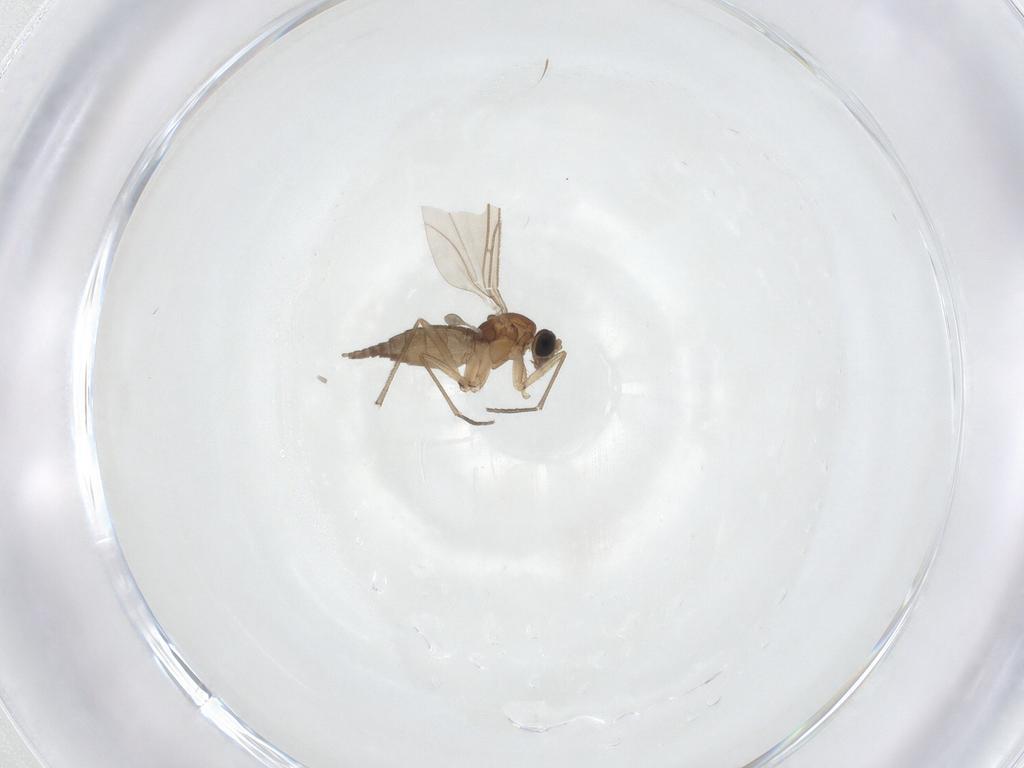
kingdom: Animalia
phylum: Arthropoda
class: Insecta
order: Diptera
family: Sciaridae
